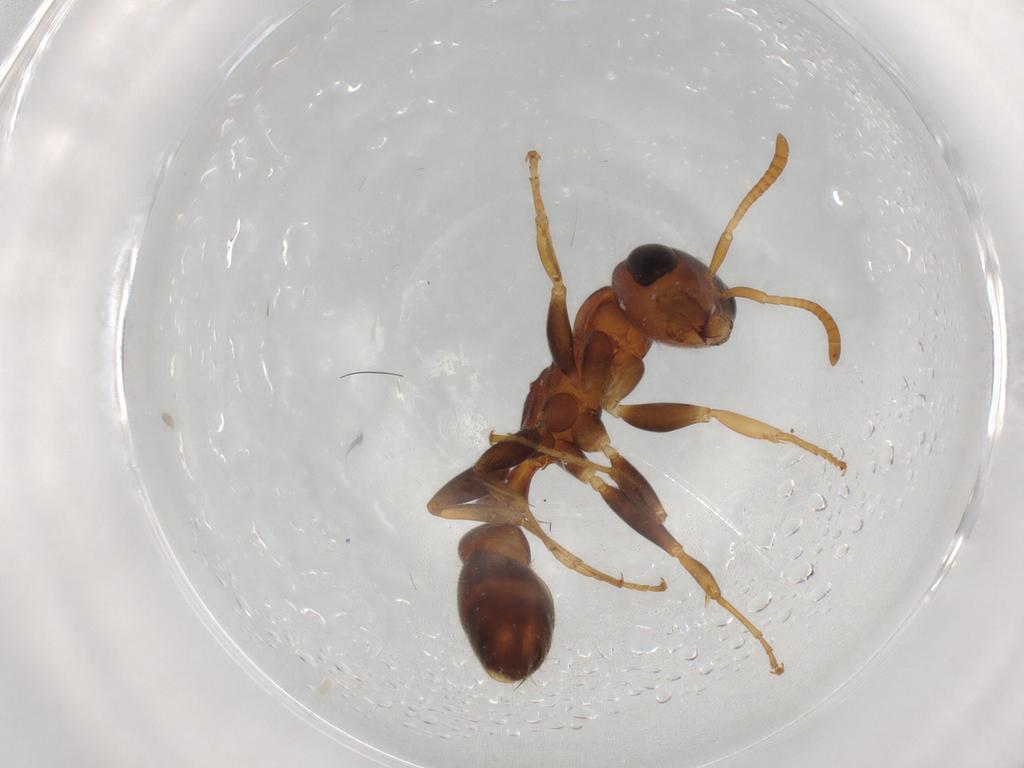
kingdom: Animalia
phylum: Arthropoda
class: Insecta
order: Hymenoptera
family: Formicidae
